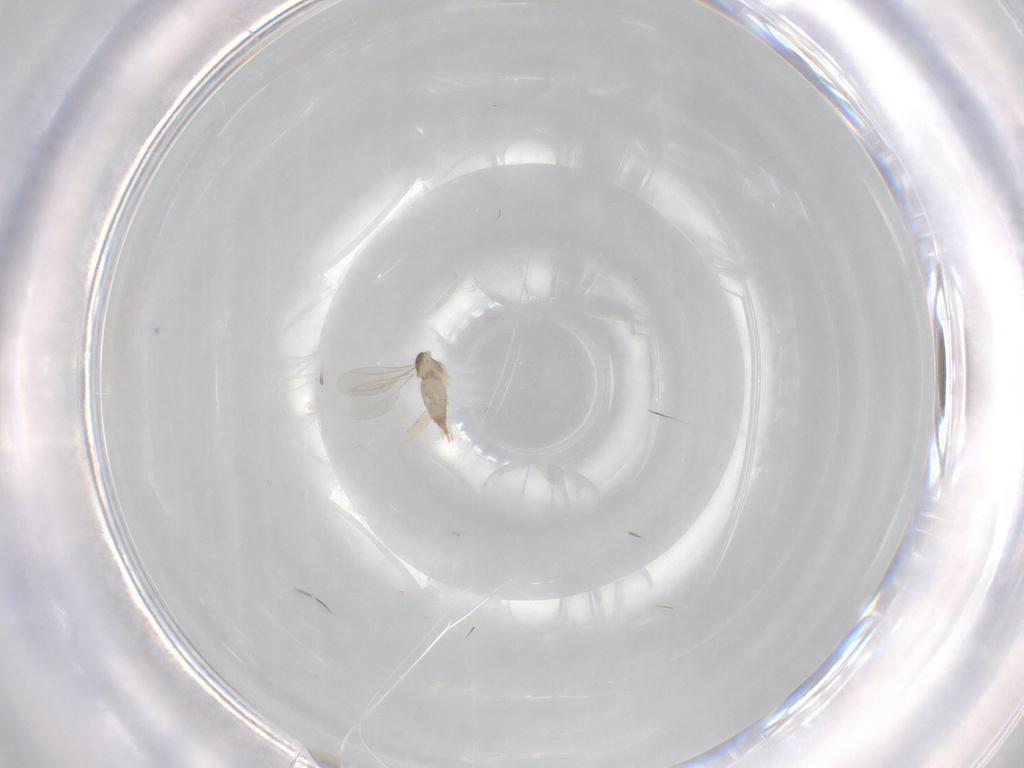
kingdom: Animalia
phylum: Arthropoda
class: Insecta
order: Diptera
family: Cecidomyiidae
